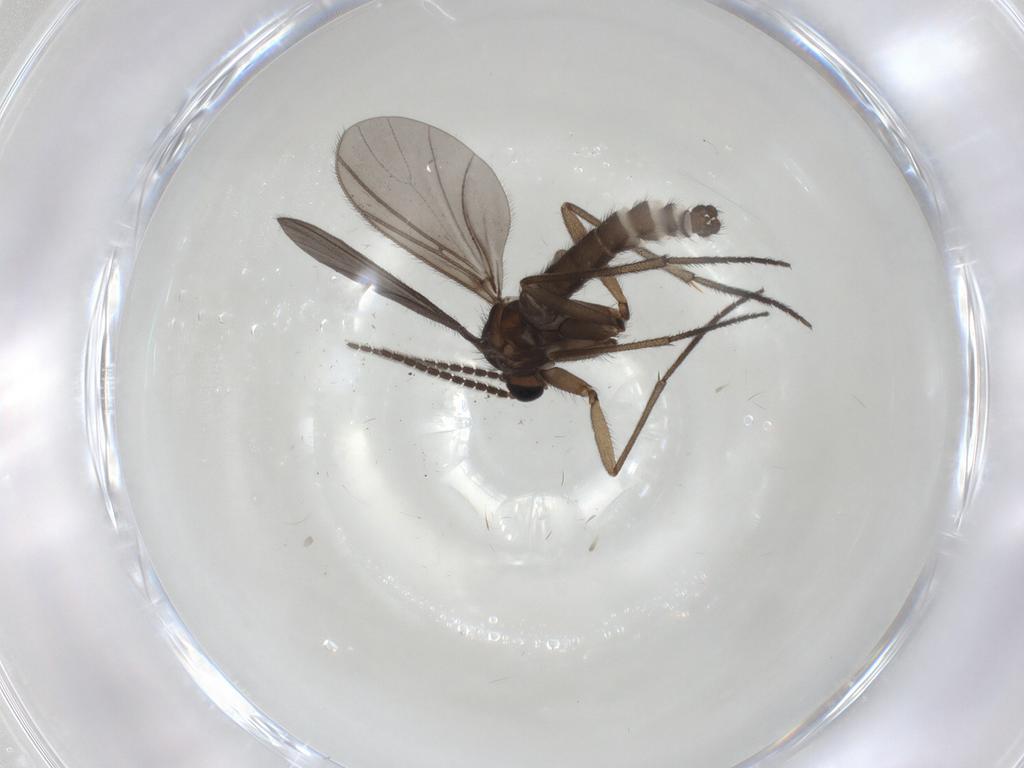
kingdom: Animalia
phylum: Arthropoda
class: Insecta
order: Diptera
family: Sciaridae
